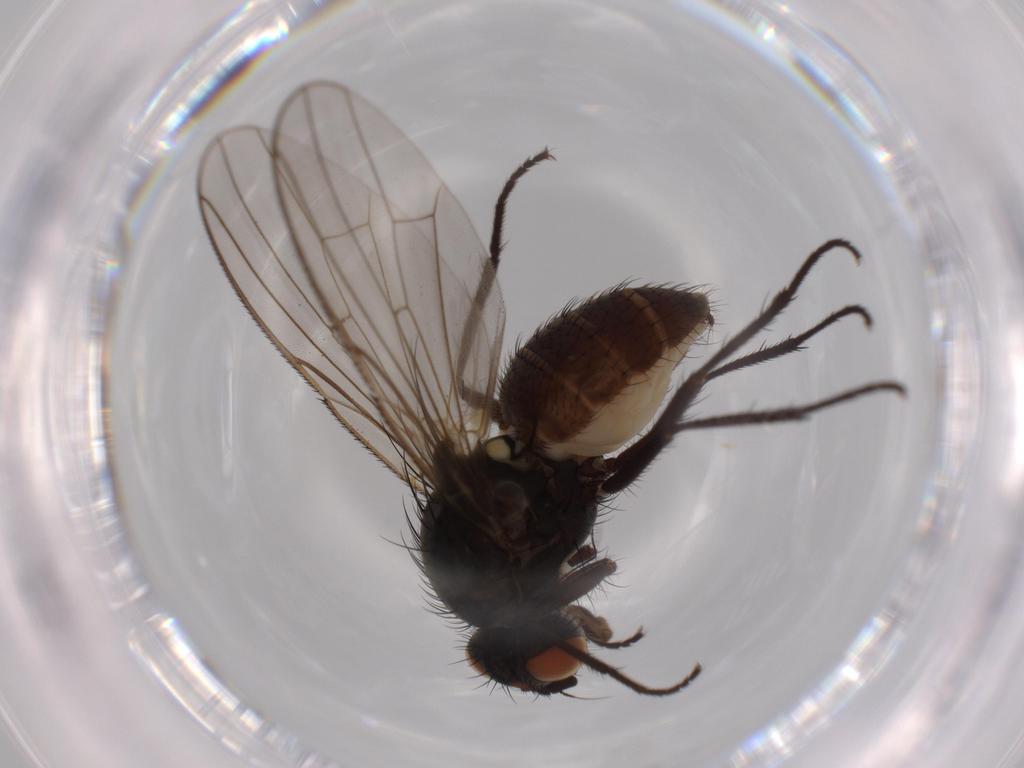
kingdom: Animalia
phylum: Arthropoda
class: Insecta
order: Diptera
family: Anthomyiidae
